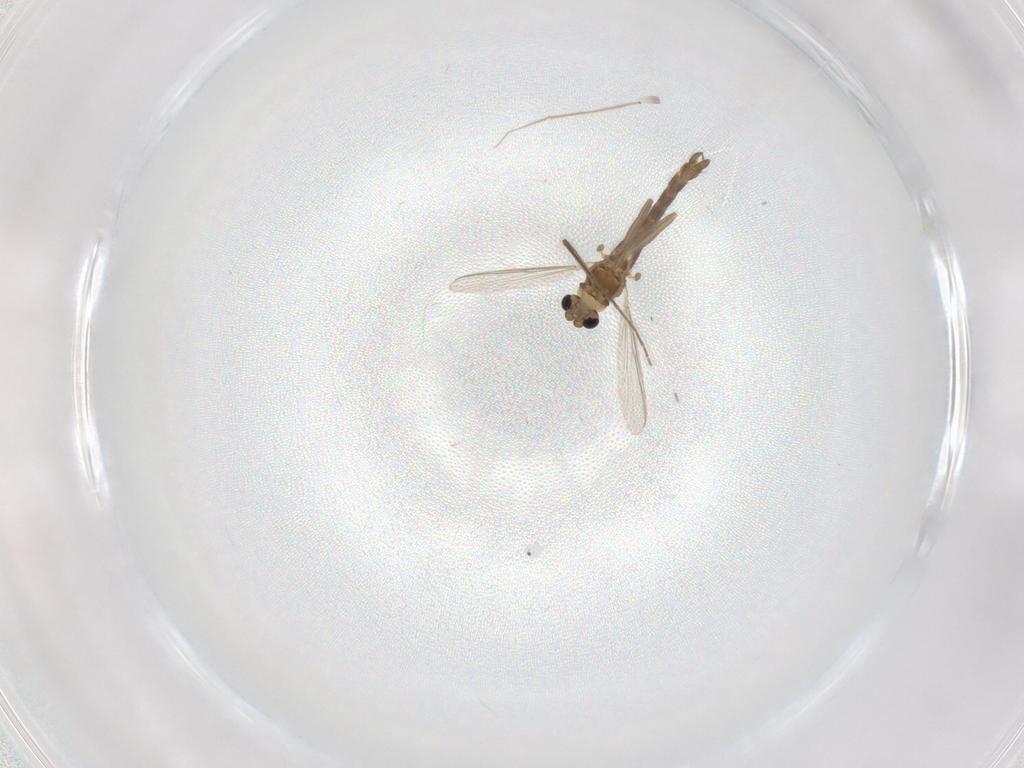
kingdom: Animalia
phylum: Arthropoda
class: Insecta
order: Diptera
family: Chironomidae
